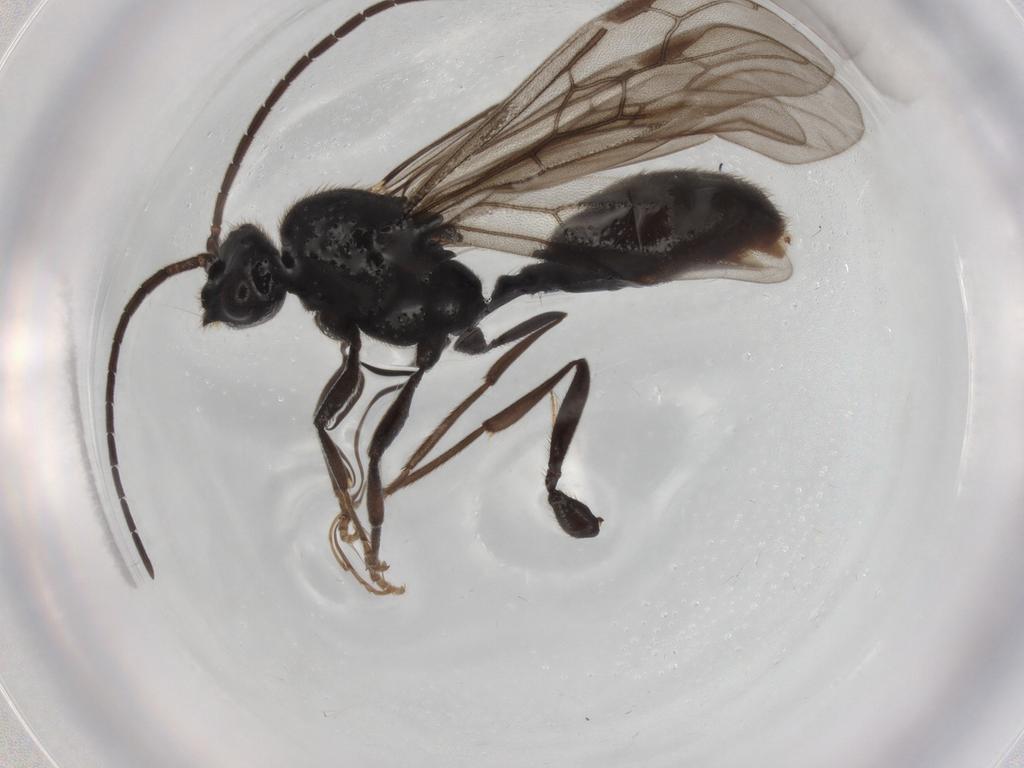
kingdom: Animalia
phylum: Arthropoda
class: Insecta
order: Hymenoptera
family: Formicidae
